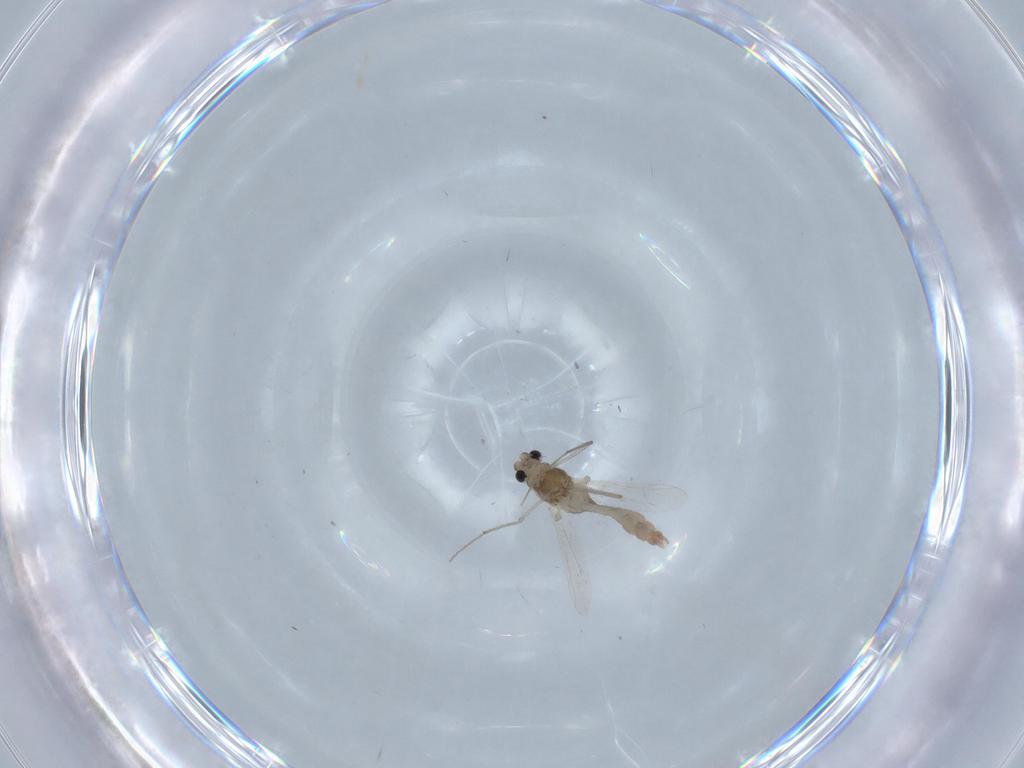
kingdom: Animalia
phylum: Arthropoda
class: Insecta
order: Diptera
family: Chironomidae
